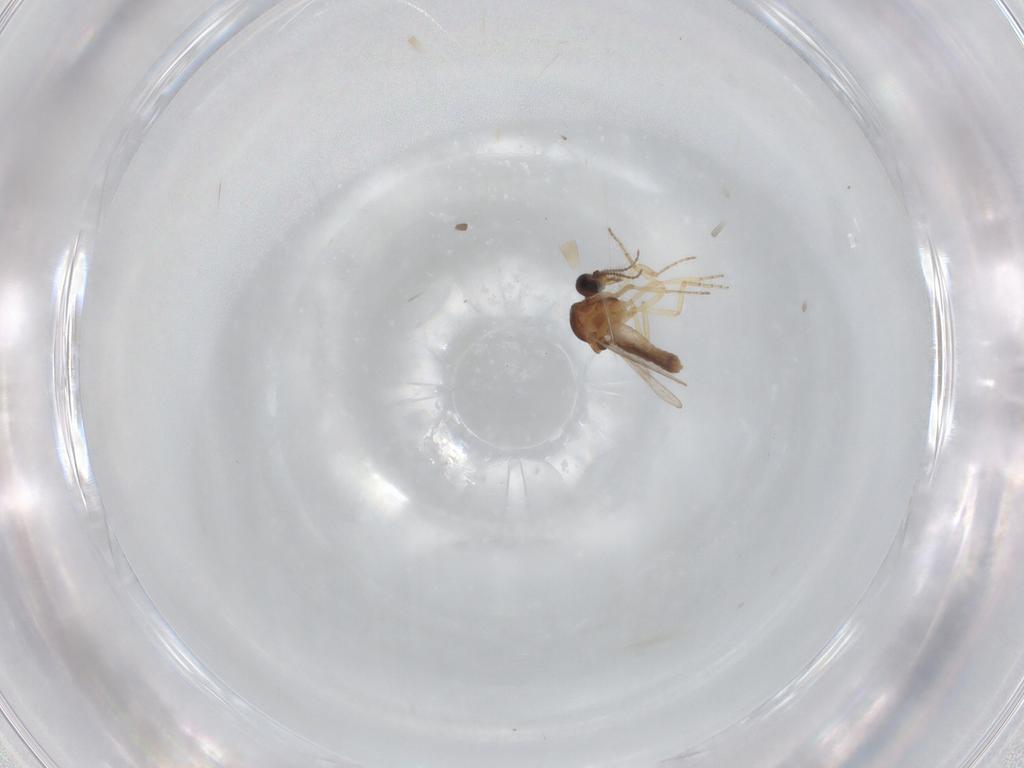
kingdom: Animalia
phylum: Arthropoda
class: Insecta
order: Diptera
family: Ceratopogonidae
